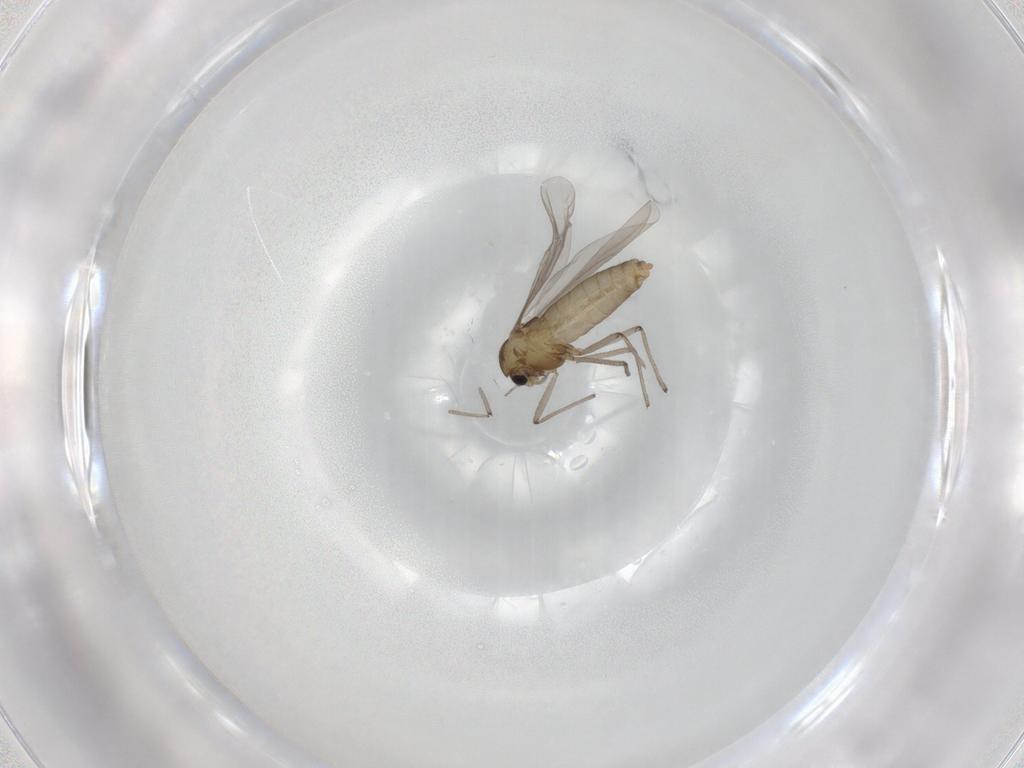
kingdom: Animalia
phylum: Arthropoda
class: Insecta
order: Diptera
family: Chironomidae
